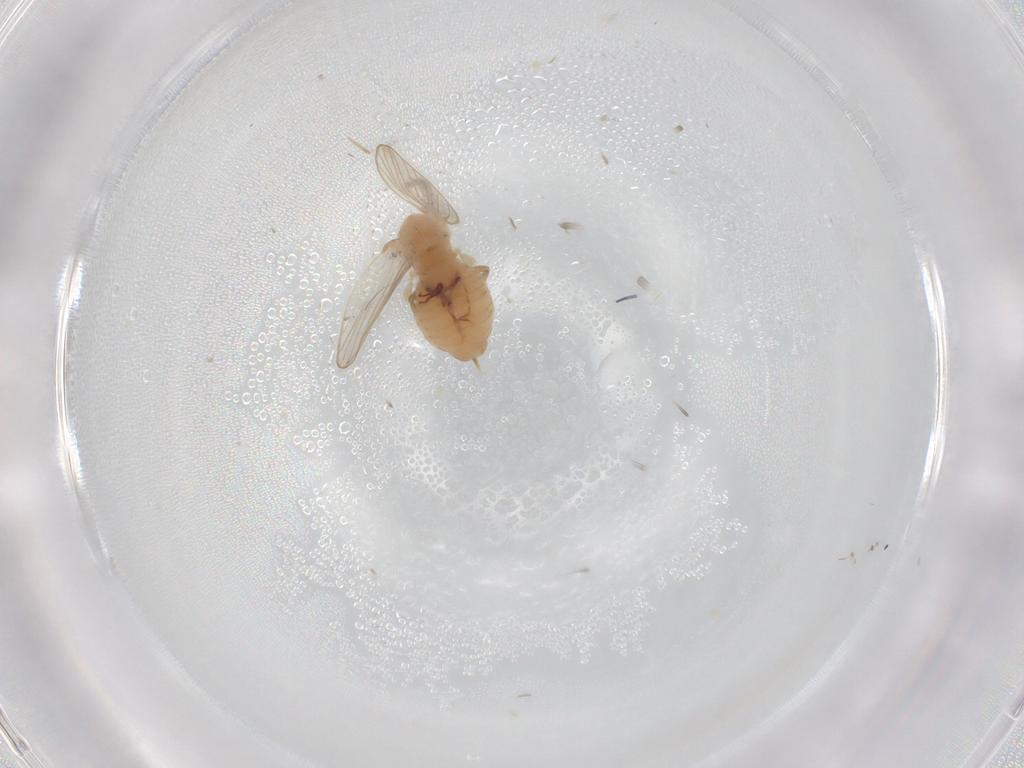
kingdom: Animalia
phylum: Arthropoda
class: Insecta
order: Diptera
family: Psychodidae
